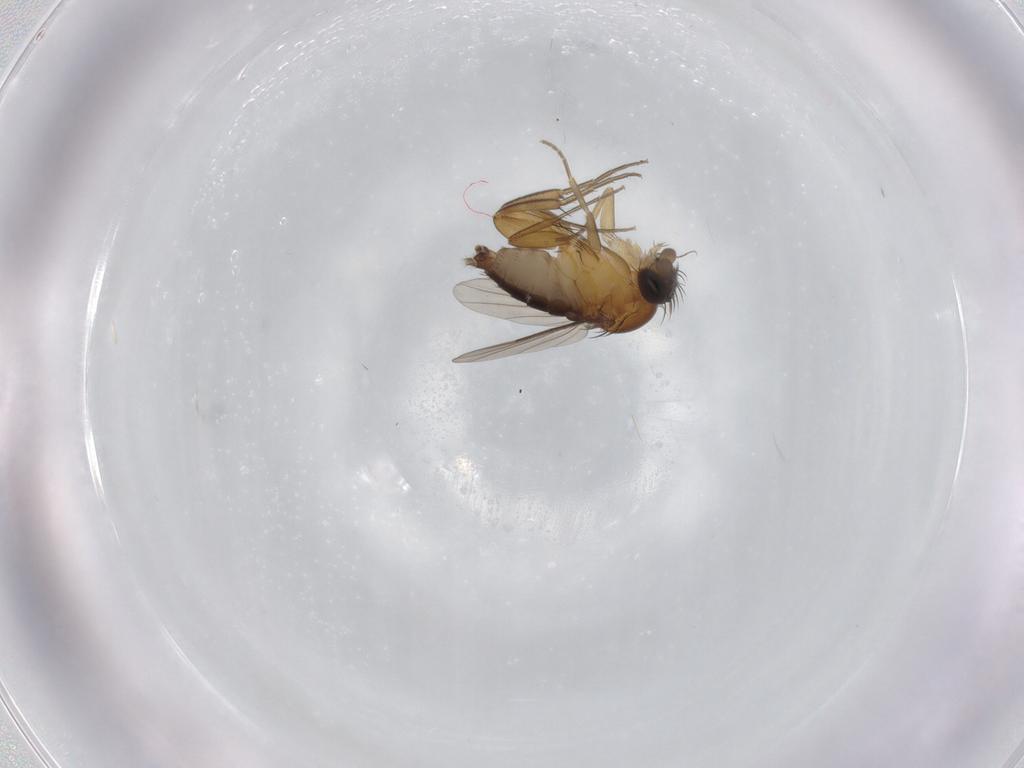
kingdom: Animalia
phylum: Arthropoda
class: Insecta
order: Diptera
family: Phoridae
